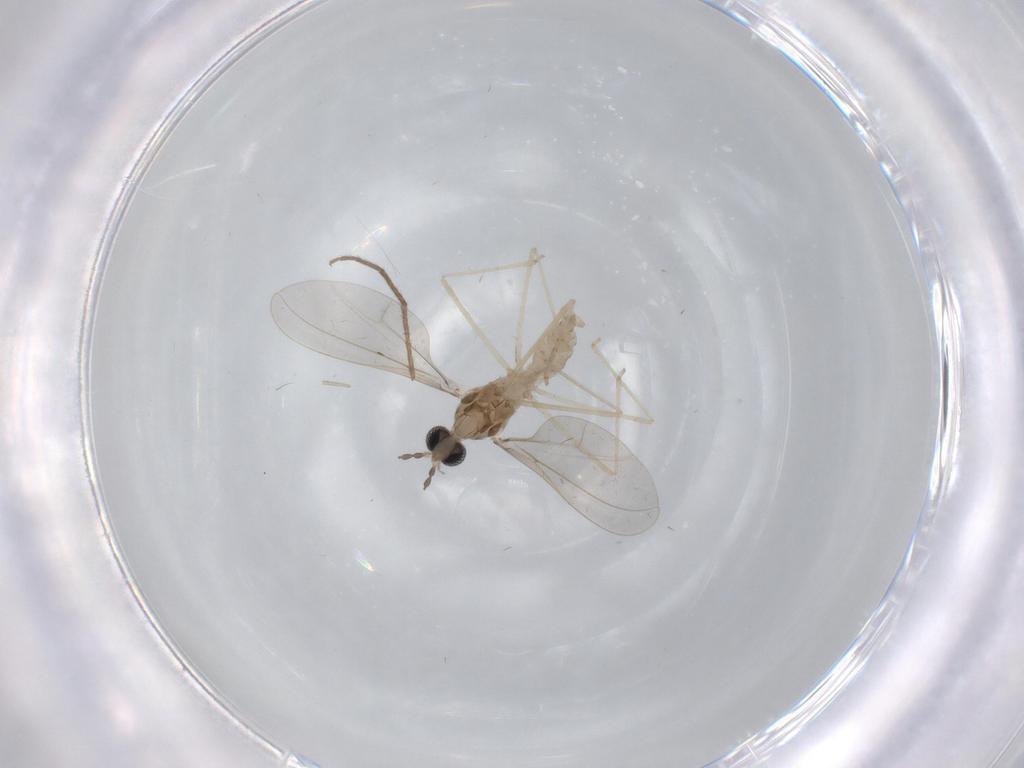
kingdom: Animalia
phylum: Arthropoda
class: Insecta
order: Diptera
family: Cecidomyiidae
